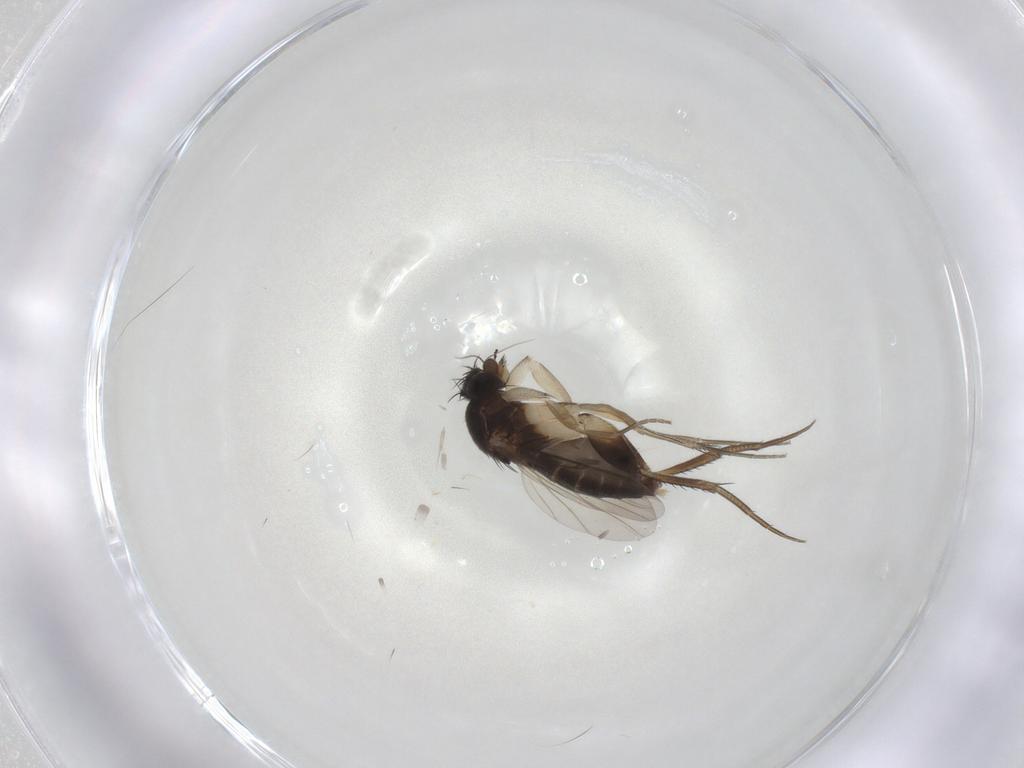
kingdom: Animalia
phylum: Arthropoda
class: Insecta
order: Diptera
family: Phoridae
